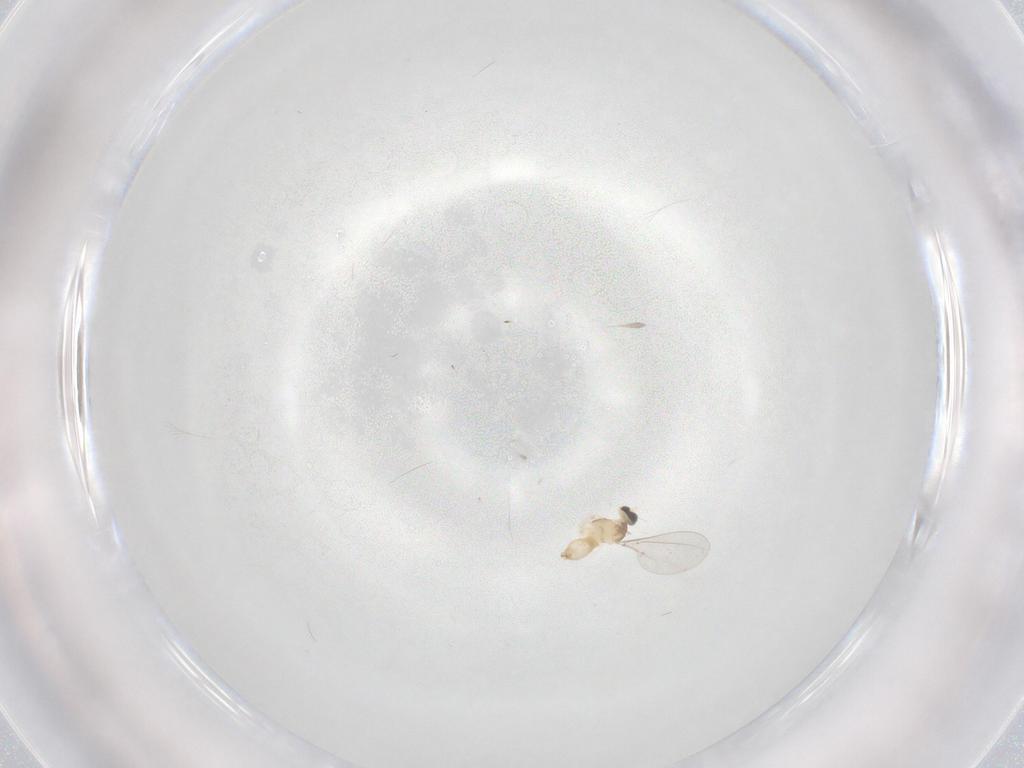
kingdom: Animalia
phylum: Arthropoda
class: Insecta
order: Diptera
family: Cecidomyiidae
